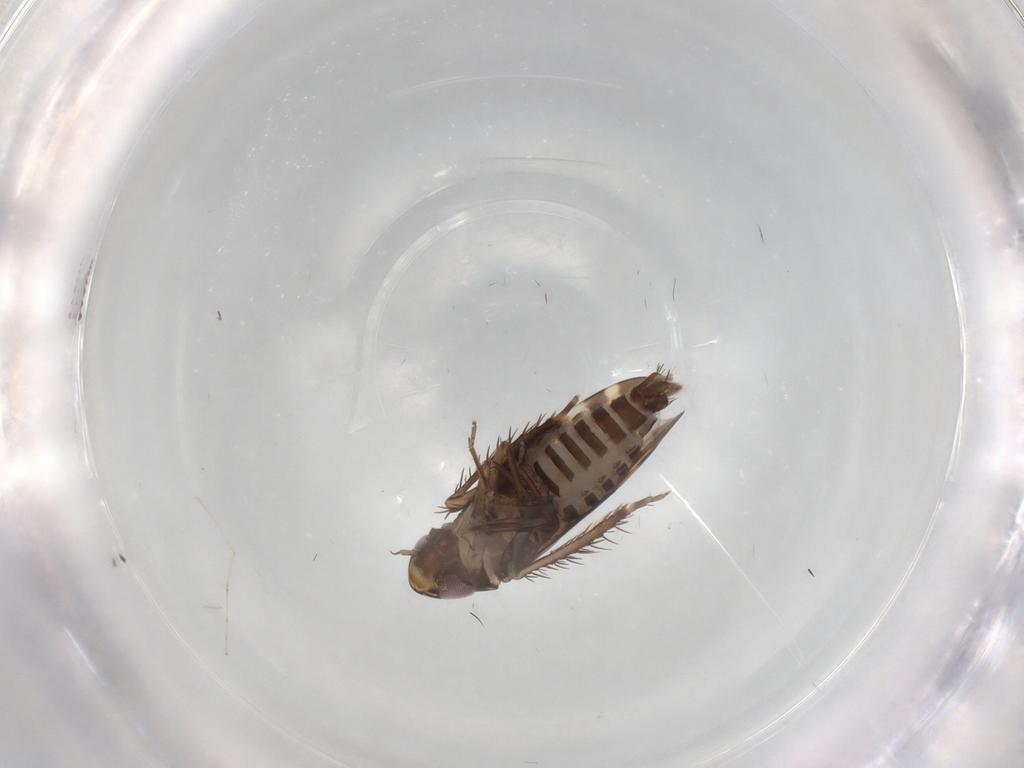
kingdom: Animalia
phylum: Arthropoda
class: Insecta
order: Hemiptera
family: Cicadellidae
